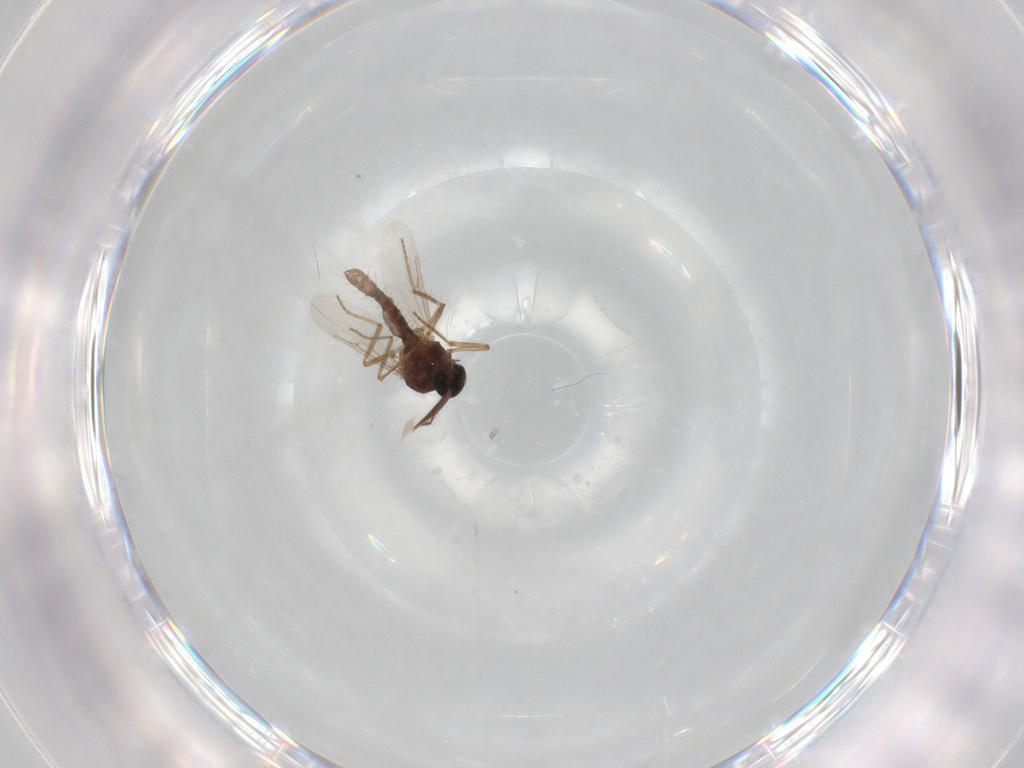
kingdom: Animalia
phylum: Arthropoda
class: Insecta
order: Diptera
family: Ceratopogonidae
